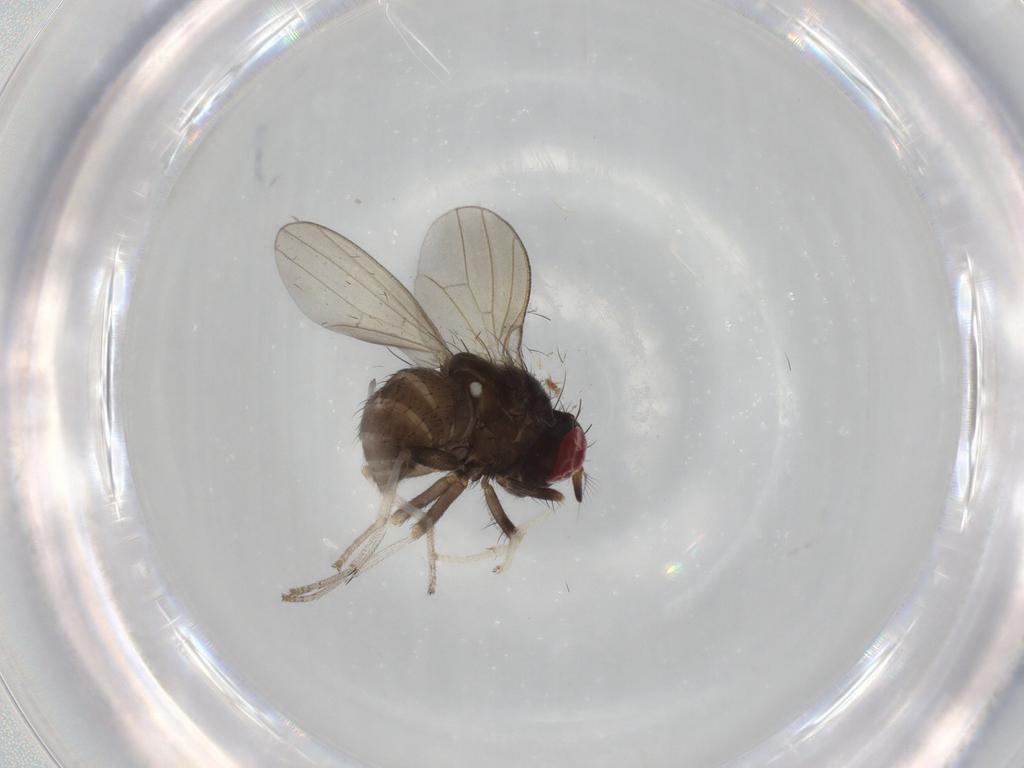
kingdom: Animalia
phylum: Arthropoda
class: Insecta
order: Diptera
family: Lauxaniidae
